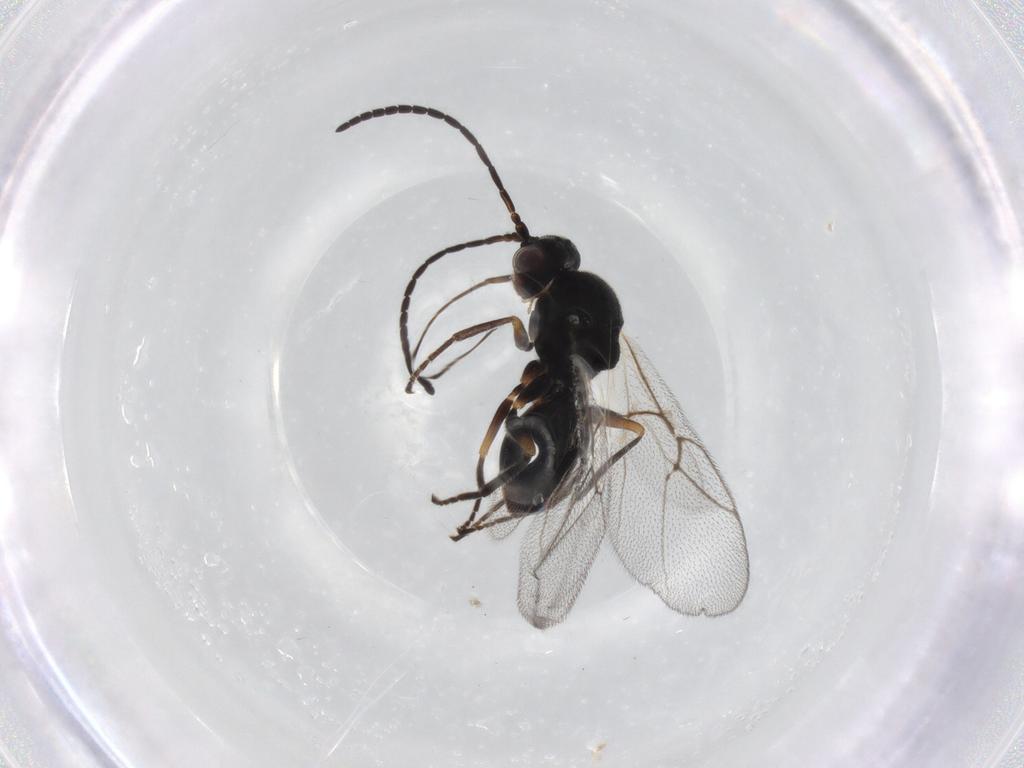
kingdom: Animalia
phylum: Arthropoda
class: Insecta
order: Hymenoptera
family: Cynipidae
